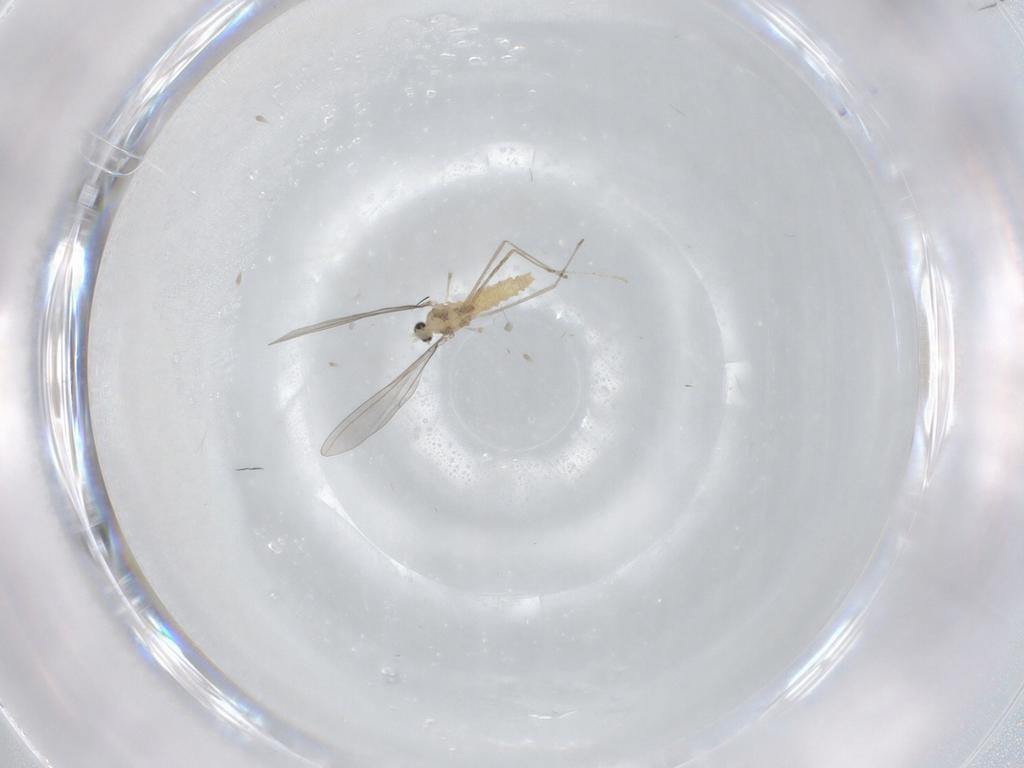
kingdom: Animalia
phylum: Arthropoda
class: Insecta
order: Diptera
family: Cecidomyiidae
